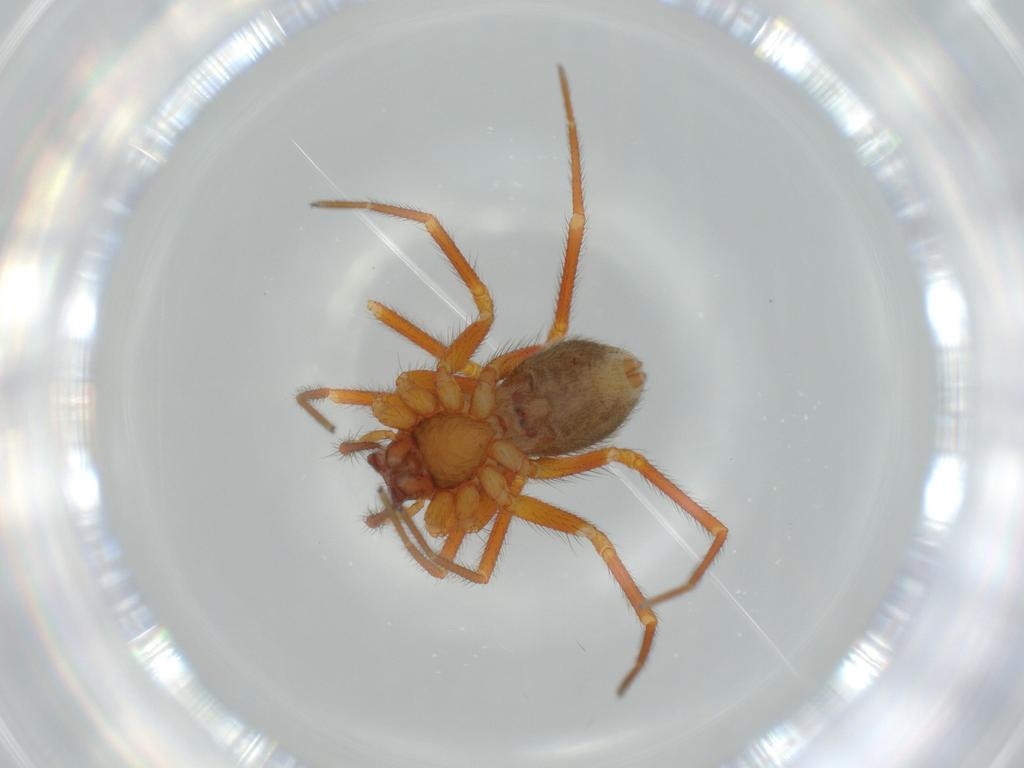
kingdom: Animalia
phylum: Arthropoda
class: Arachnida
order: Araneae
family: Linyphiidae
